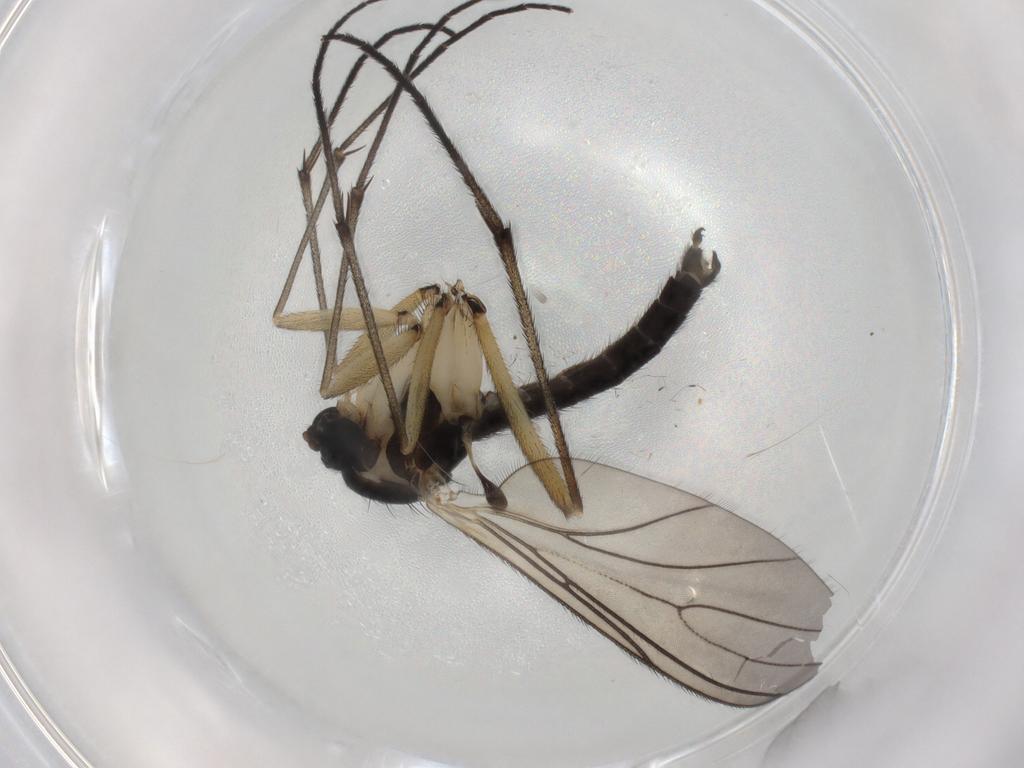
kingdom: Animalia
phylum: Arthropoda
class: Insecta
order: Diptera
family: Sciaridae
